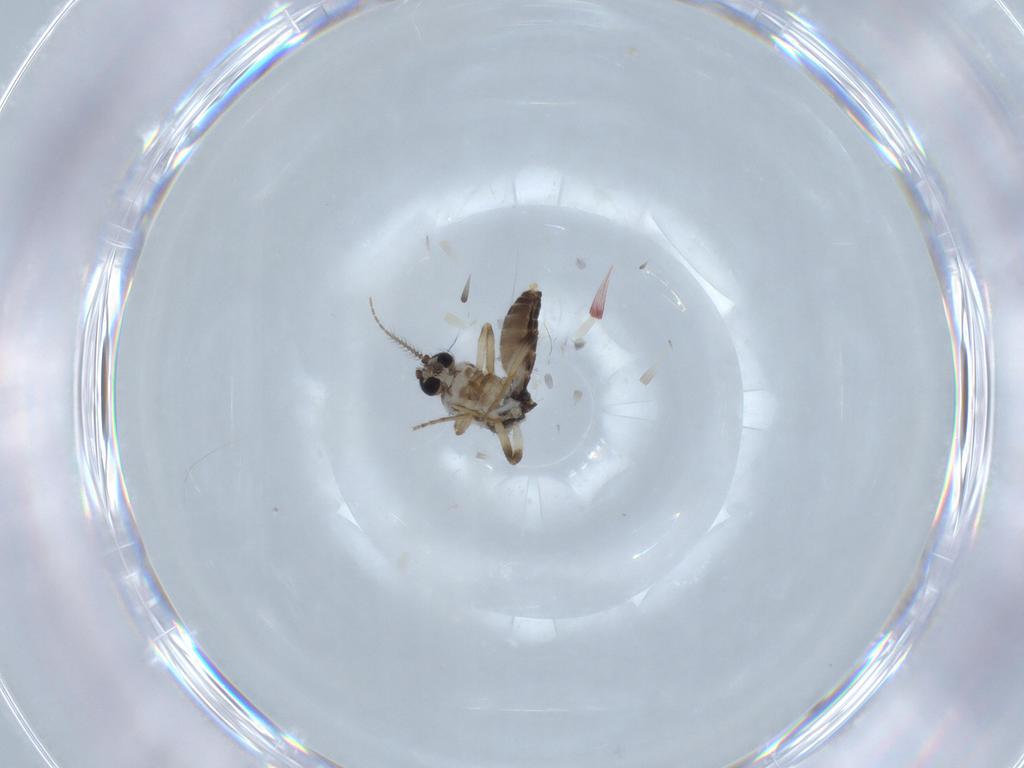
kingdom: Animalia
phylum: Arthropoda
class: Insecta
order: Diptera
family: Ceratopogonidae
